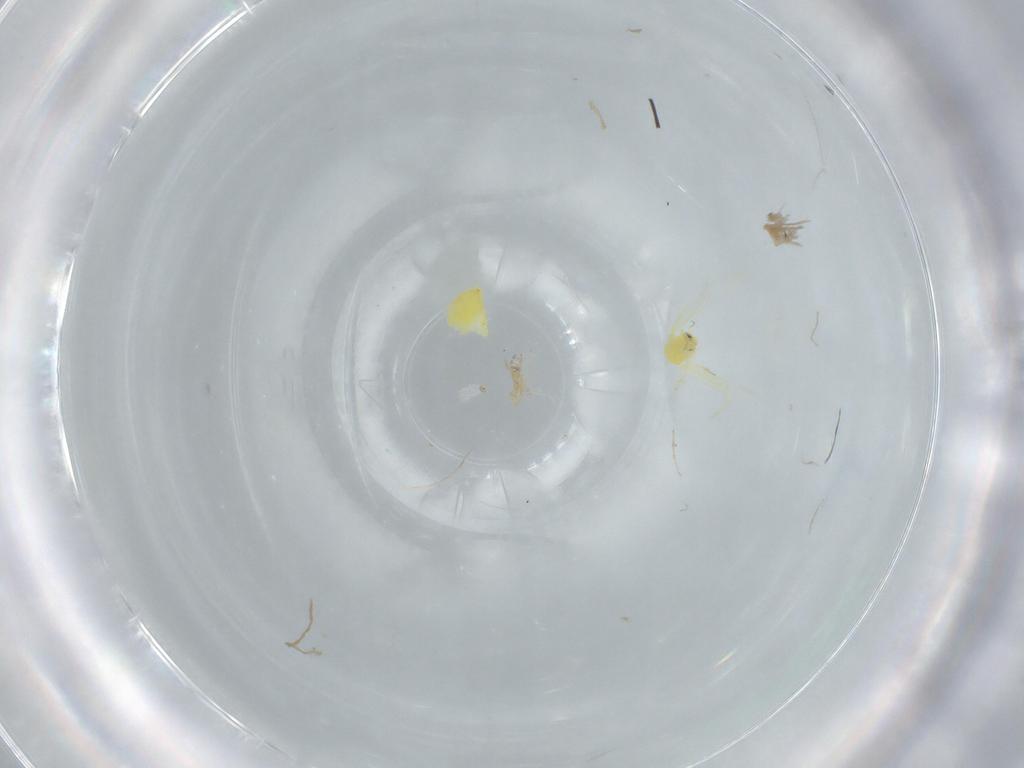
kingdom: Animalia
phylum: Arthropoda
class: Insecta
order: Hemiptera
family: Aleyrodidae
